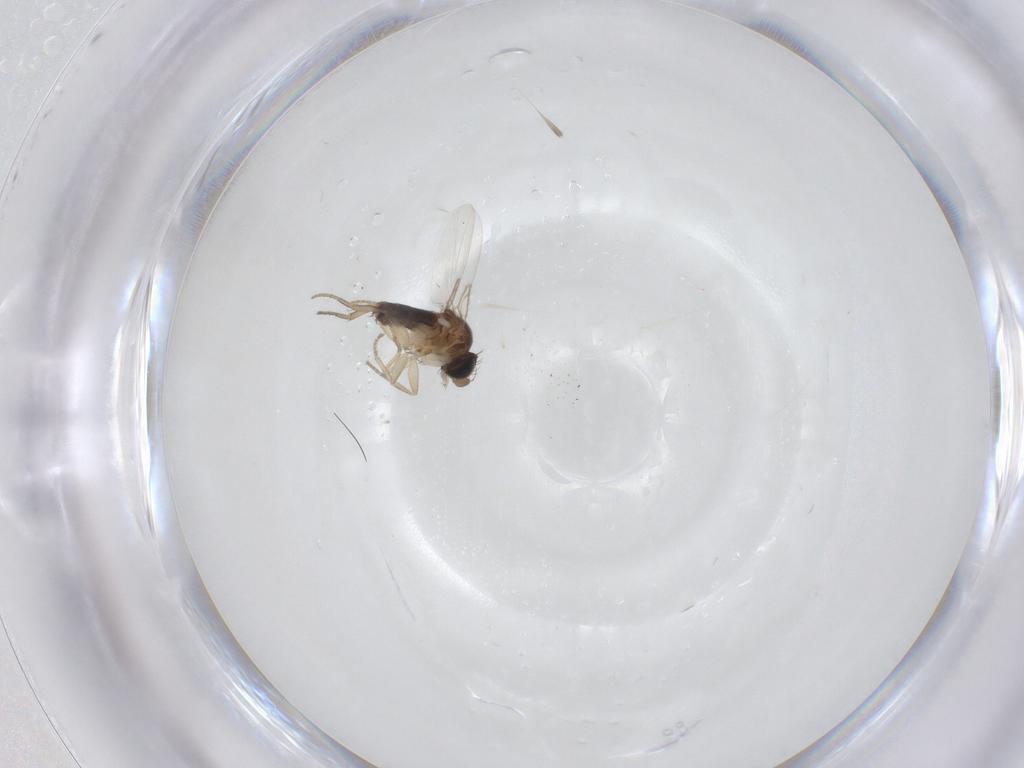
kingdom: Animalia
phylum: Arthropoda
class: Insecta
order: Diptera
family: Phoridae
